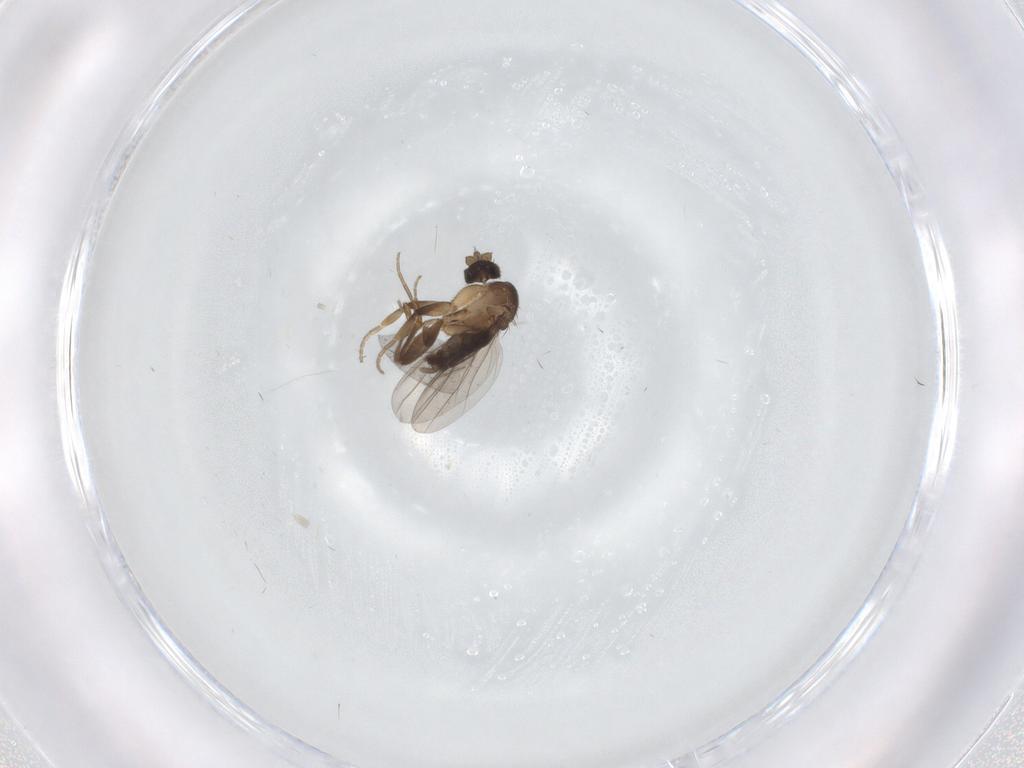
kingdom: Animalia
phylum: Arthropoda
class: Insecta
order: Diptera
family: Phoridae
